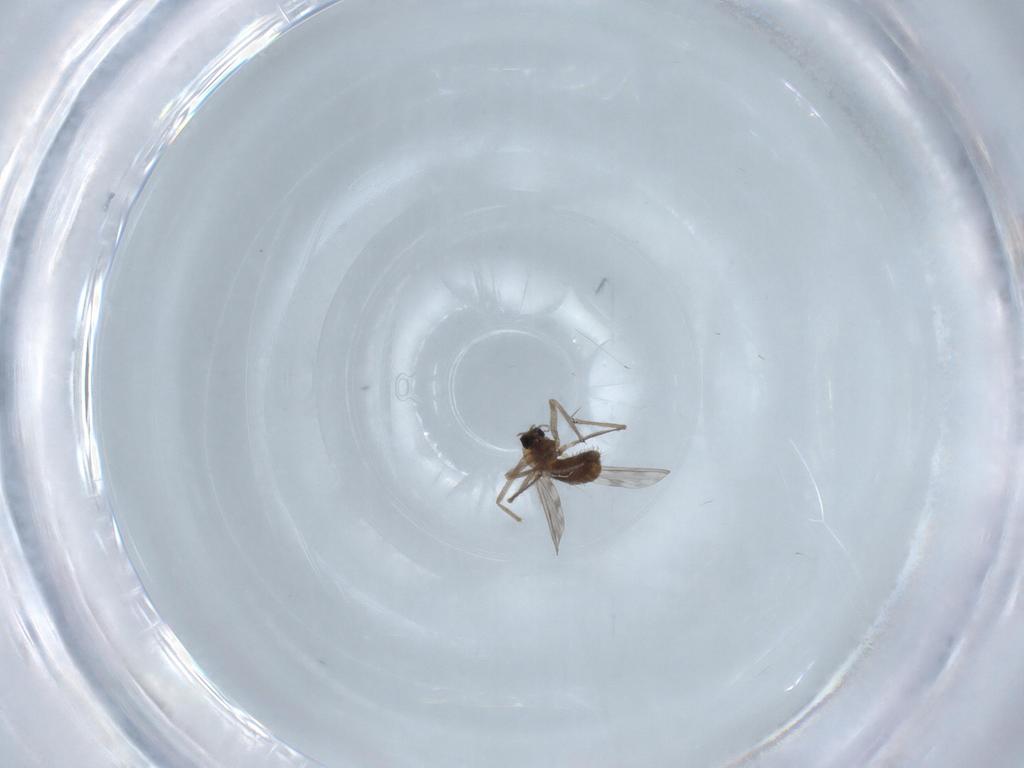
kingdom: Animalia
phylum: Arthropoda
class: Insecta
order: Diptera
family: Chironomidae
